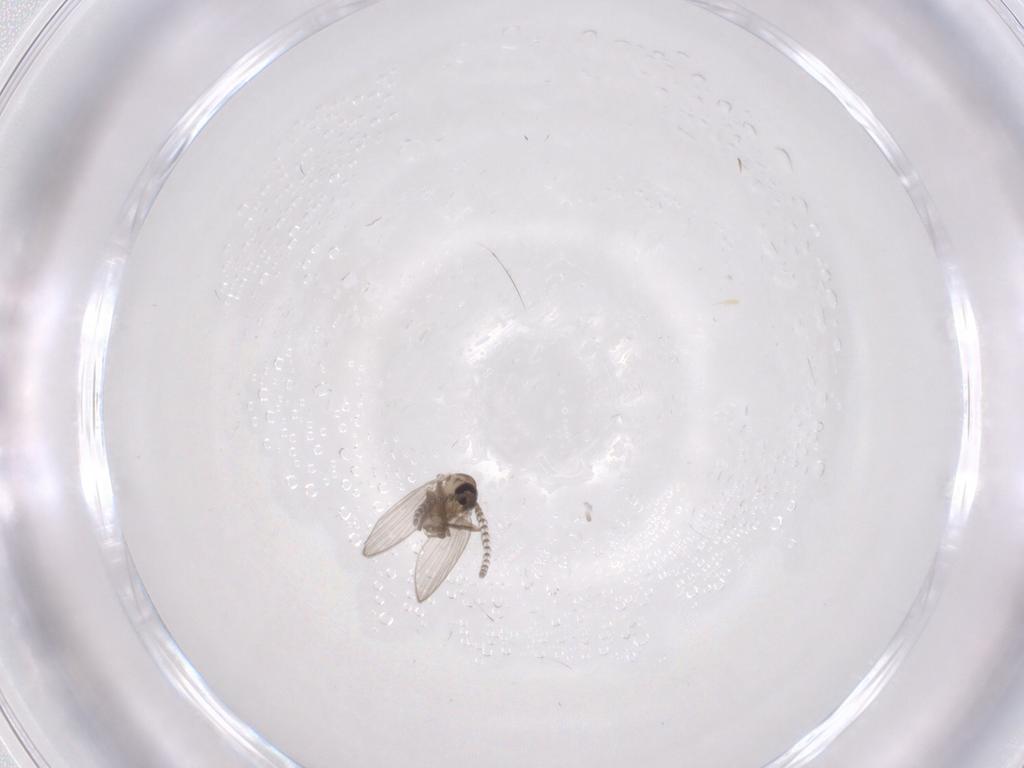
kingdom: Animalia
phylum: Arthropoda
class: Insecta
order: Diptera
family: Psychodidae
